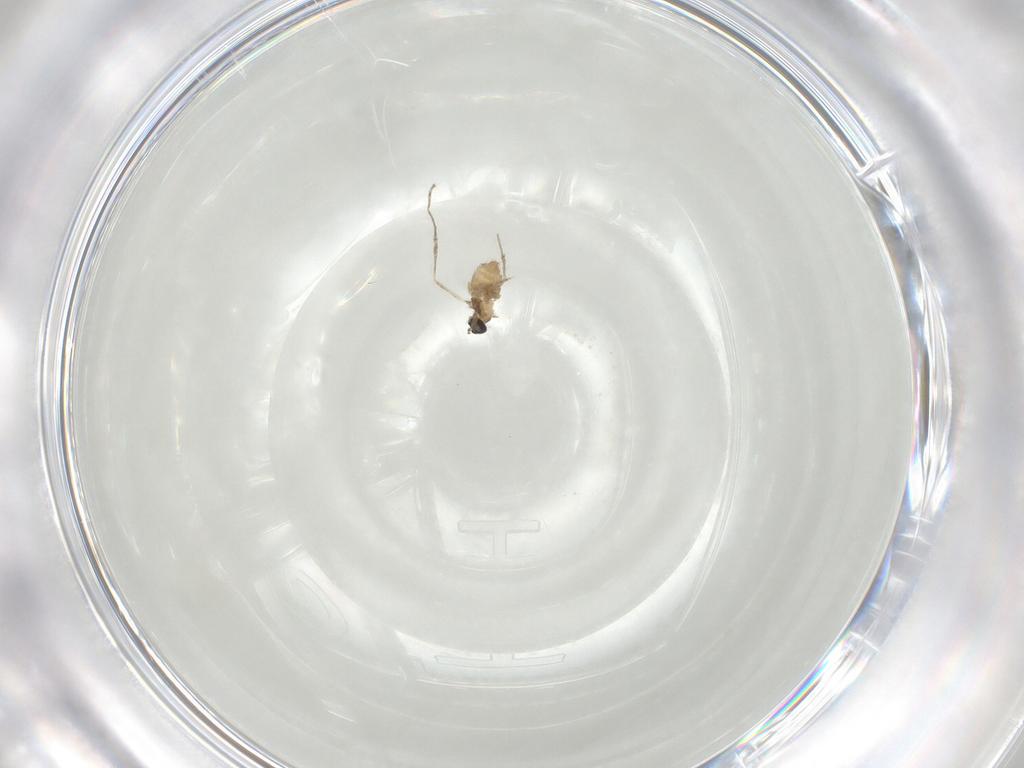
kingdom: Animalia
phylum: Arthropoda
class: Insecta
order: Diptera
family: Cecidomyiidae
